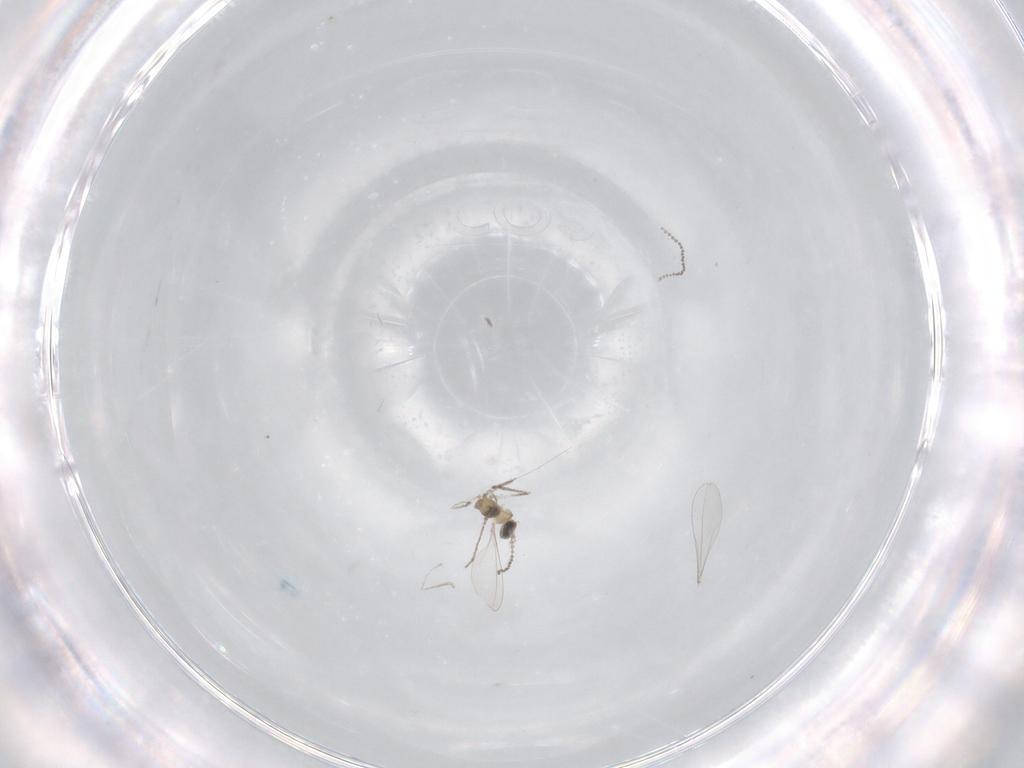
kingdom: Animalia
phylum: Arthropoda
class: Insecta
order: Diptera
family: Cecidomyiidae
